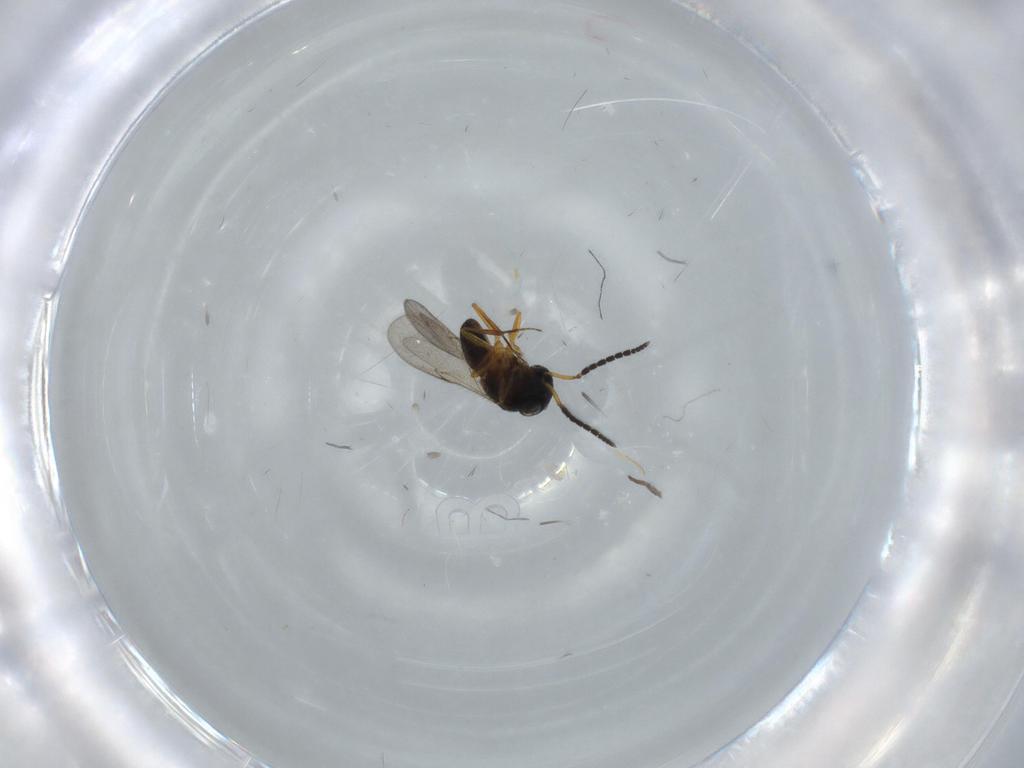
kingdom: Animalia
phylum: Arthropoda
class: Insecta
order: Hymenoptera
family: Scelionidae
